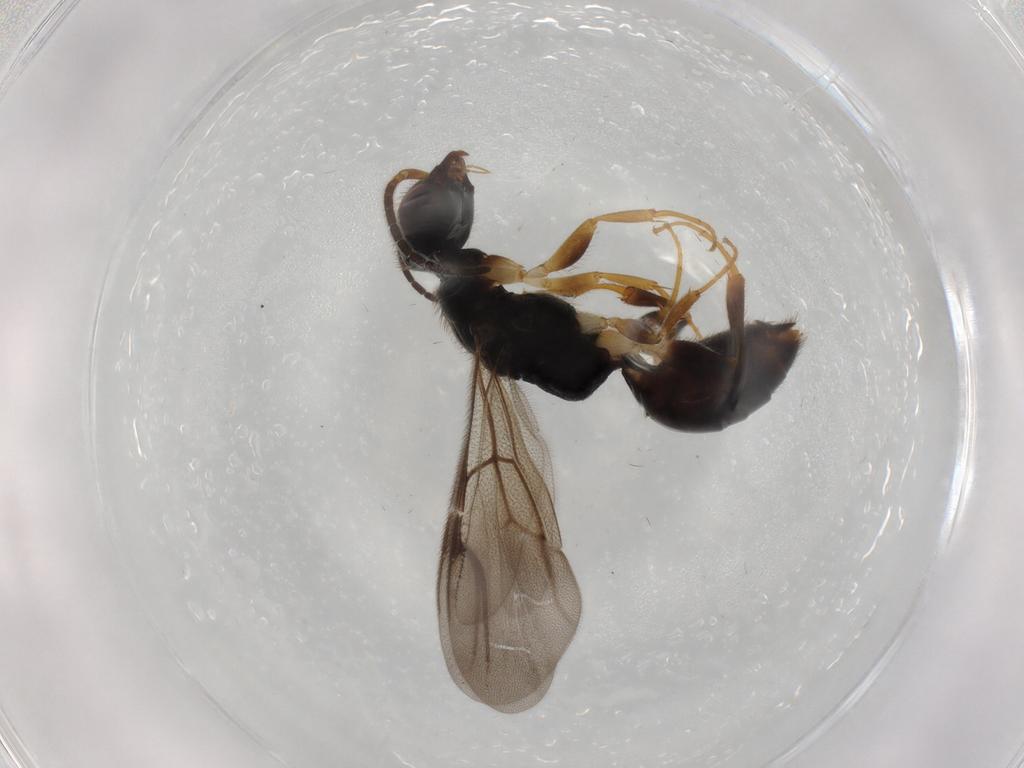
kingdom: Animalia
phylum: Arthropoda
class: Insecta
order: Hymenoptera
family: Bethylidae
